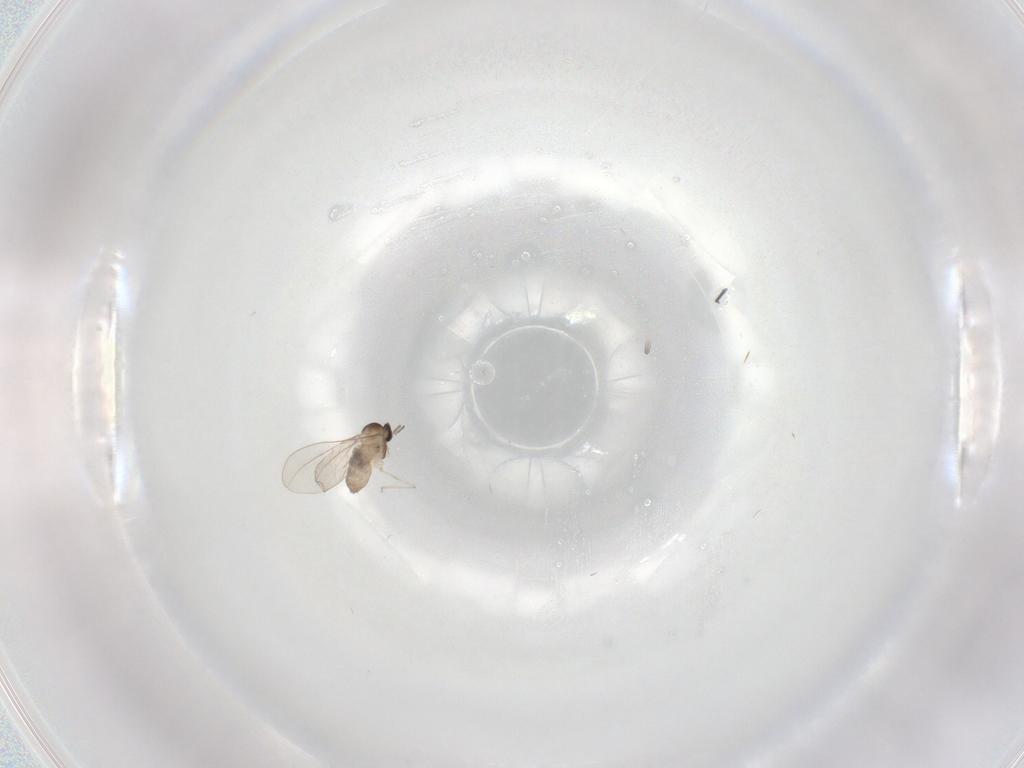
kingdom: Animalia
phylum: Arthropoda
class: Insecta
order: Diptera
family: Cecidomyiidae
